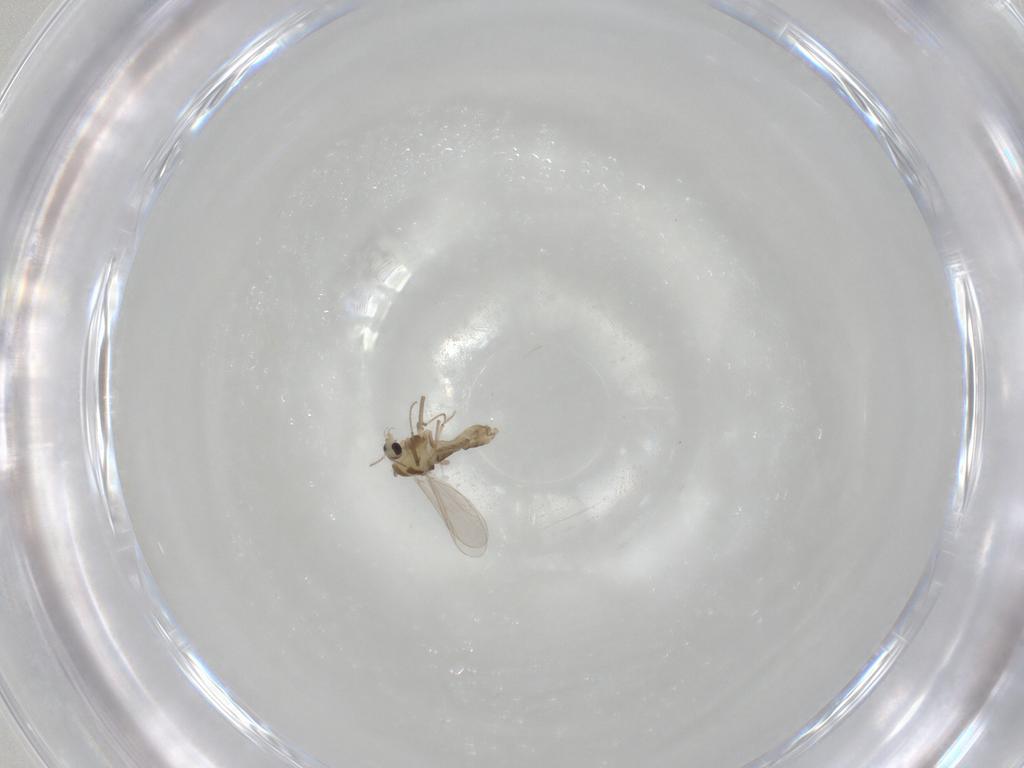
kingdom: Animalia
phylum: Arthropoda
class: Insecta
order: Diptera
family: Chironomidae
